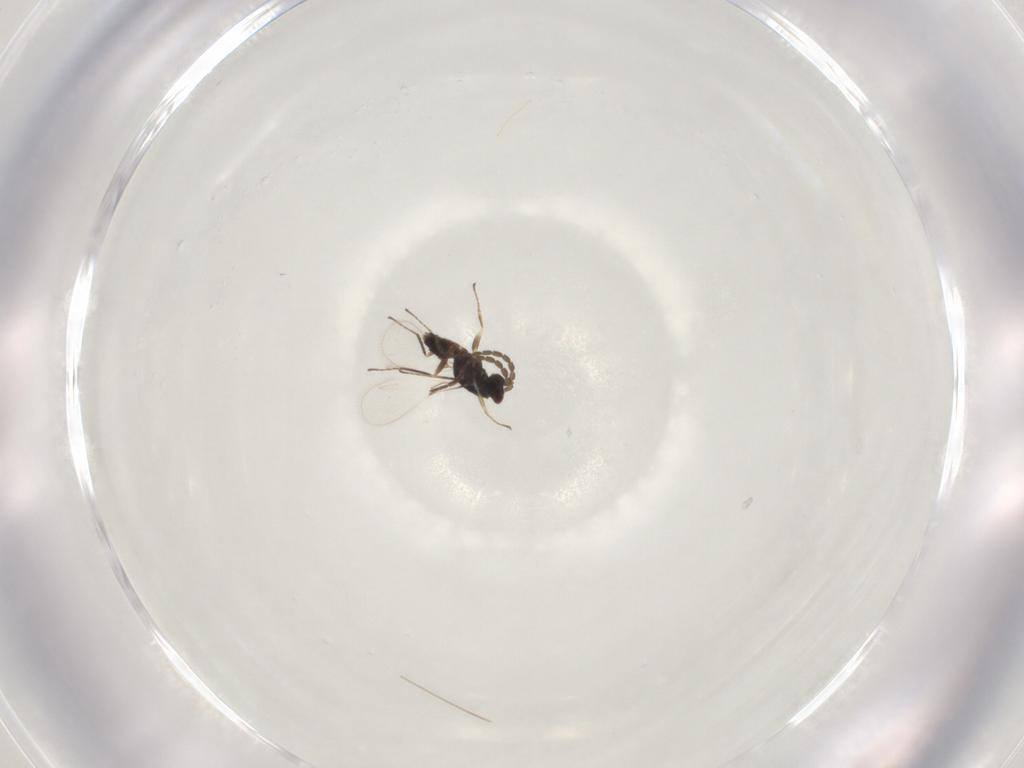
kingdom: Animalia
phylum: Arthropoda
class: Insecta
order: Hymenoptera
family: Mymaridae
